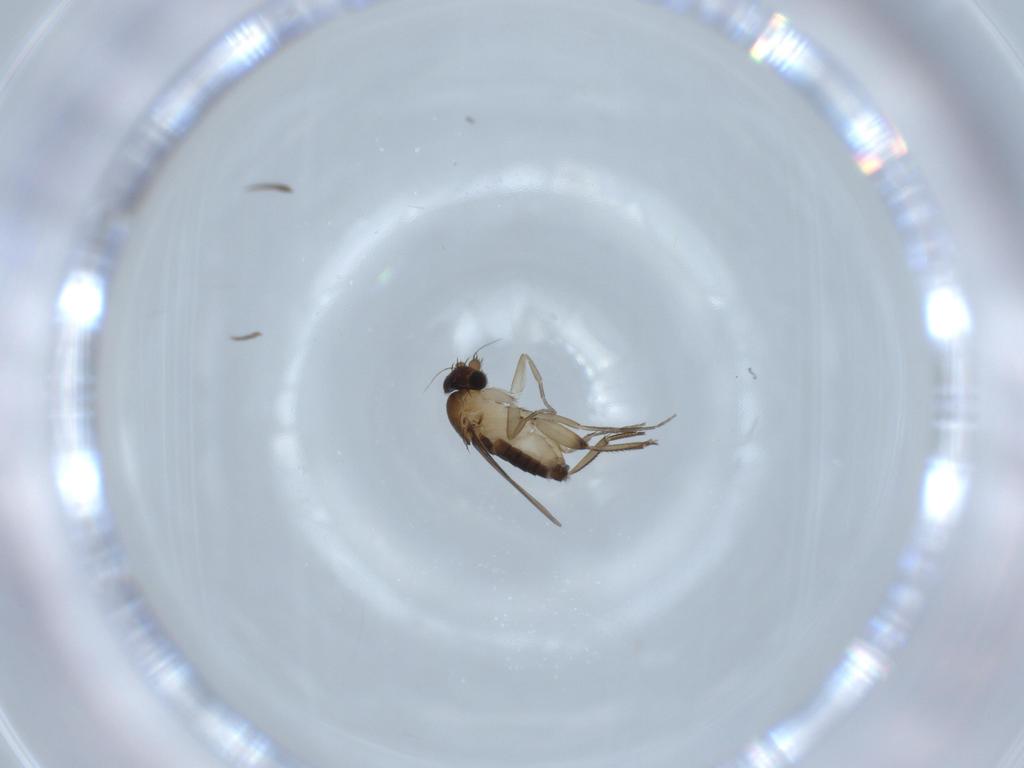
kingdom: Animalia
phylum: Arthropoda
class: Insecta
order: Diptera
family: Phoridae
